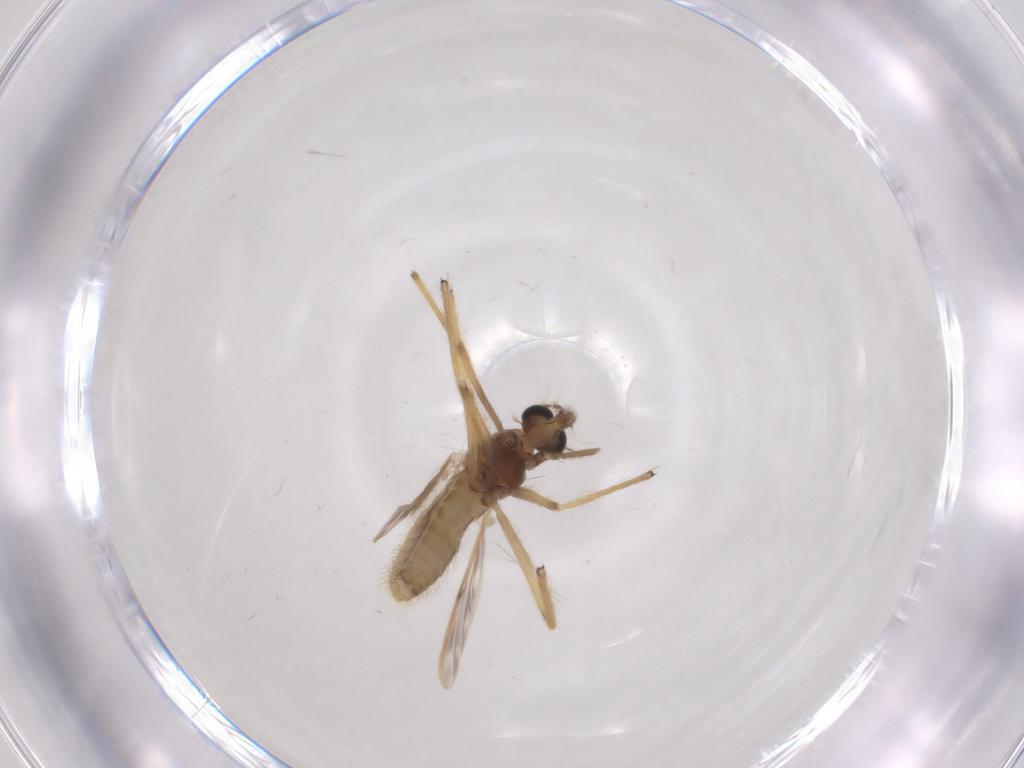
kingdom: Animalia
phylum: Arthropoda
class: Insecta
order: Diptera
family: Chironomidae
